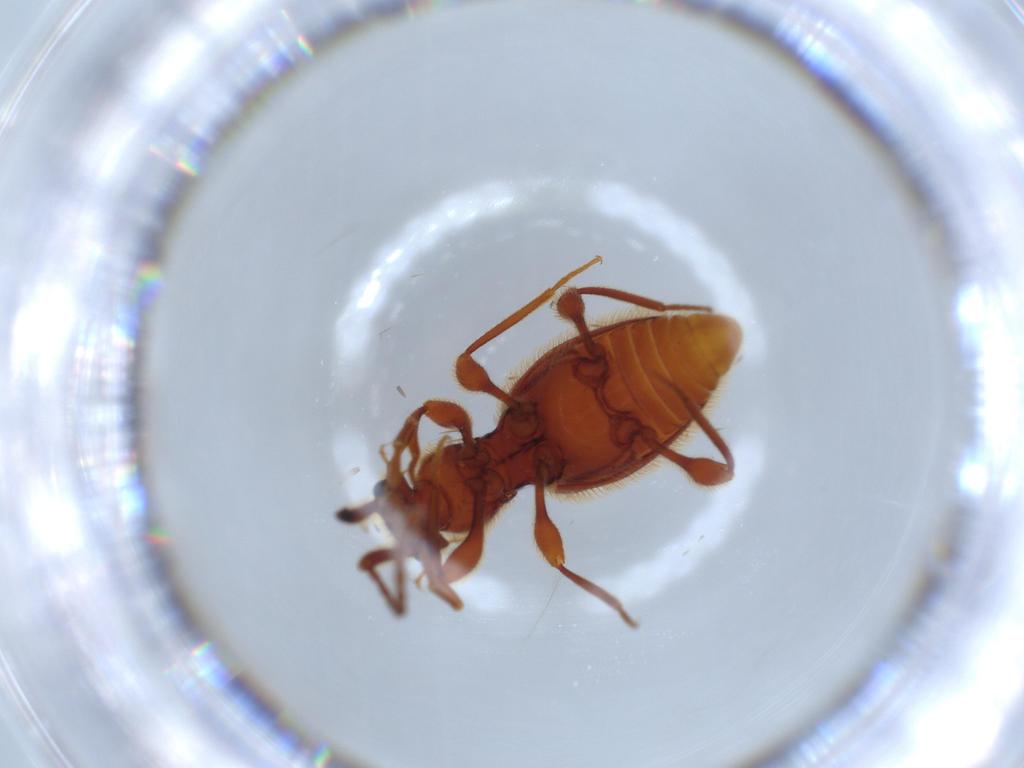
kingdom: Animalia
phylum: Arthropoda
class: Insecta
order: Coleoptera
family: Staphylinidae
